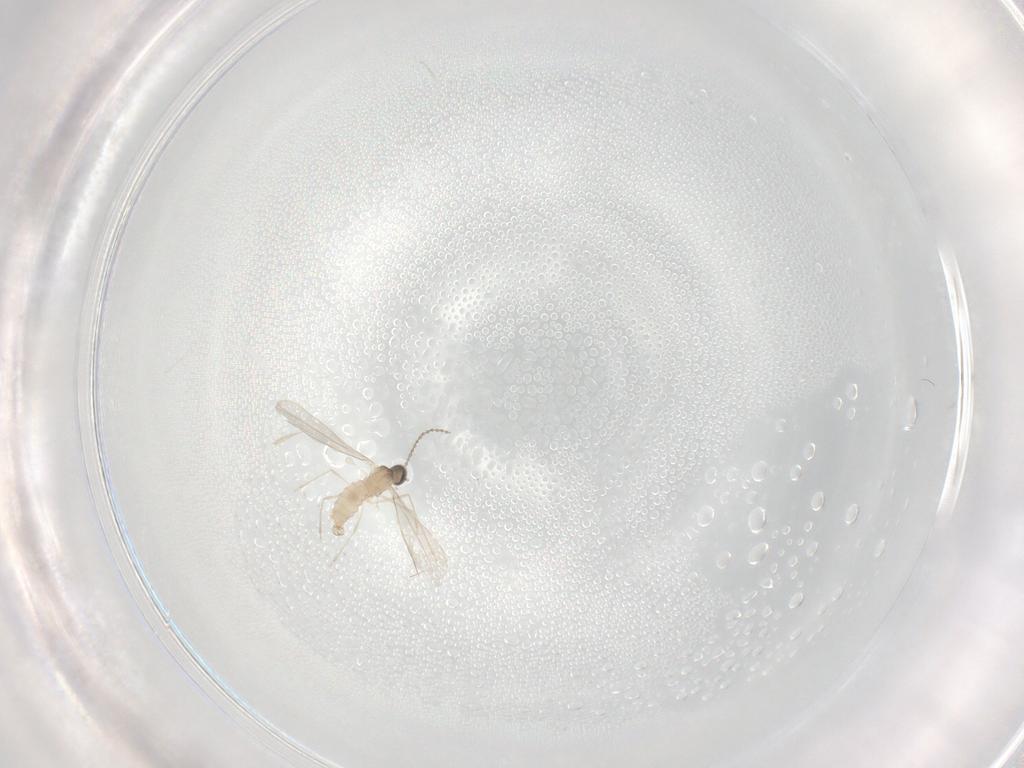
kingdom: Animalia
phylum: Arthropoda
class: Insecta
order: Diptera
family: Cecidomyiidae
